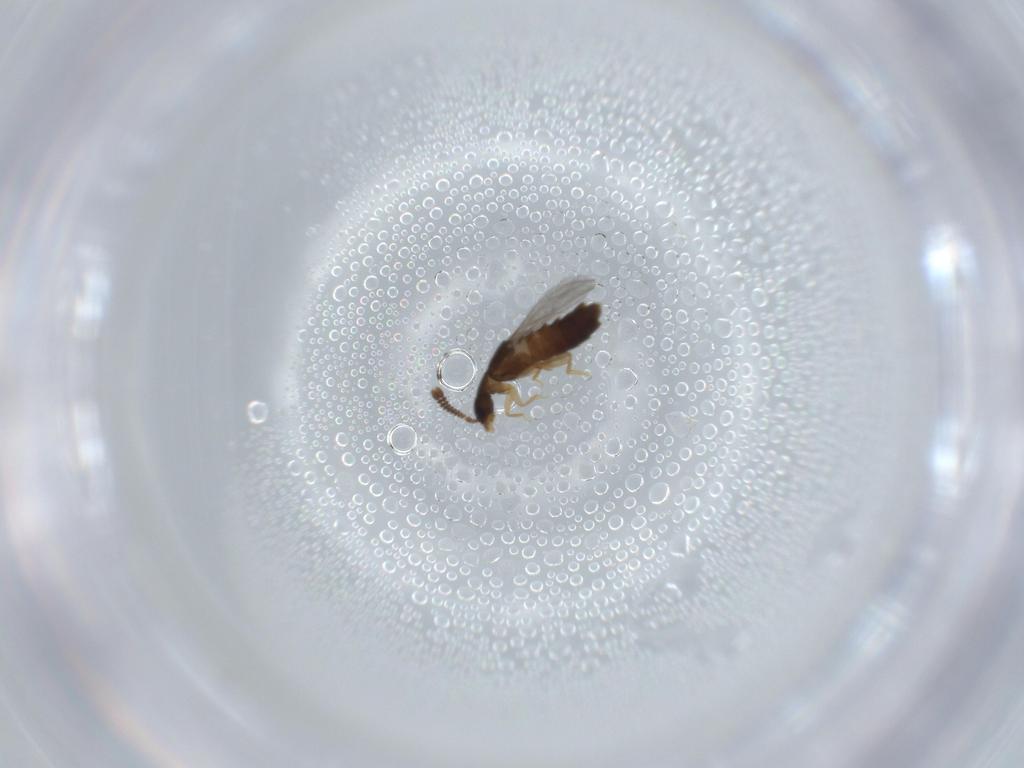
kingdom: Animalia
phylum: Arthropoda
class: Insecta
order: Coleoptera
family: Staphylinidae
